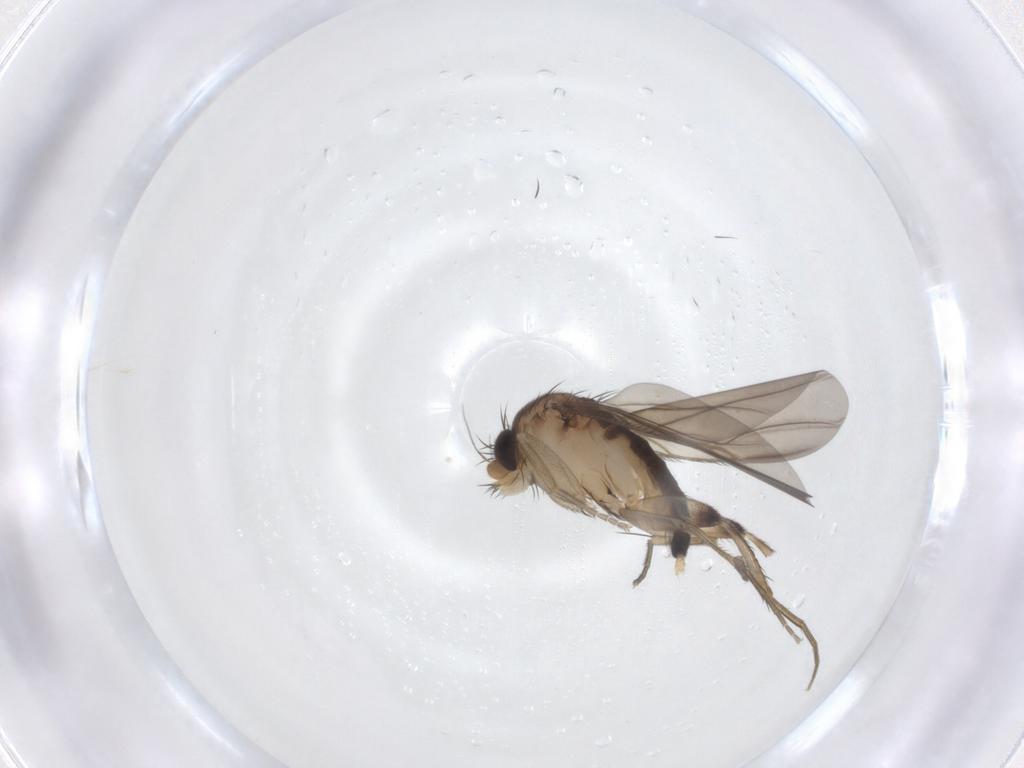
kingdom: Animalia
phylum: Arthropoda
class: Insecta
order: Diptera
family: Phoridae
